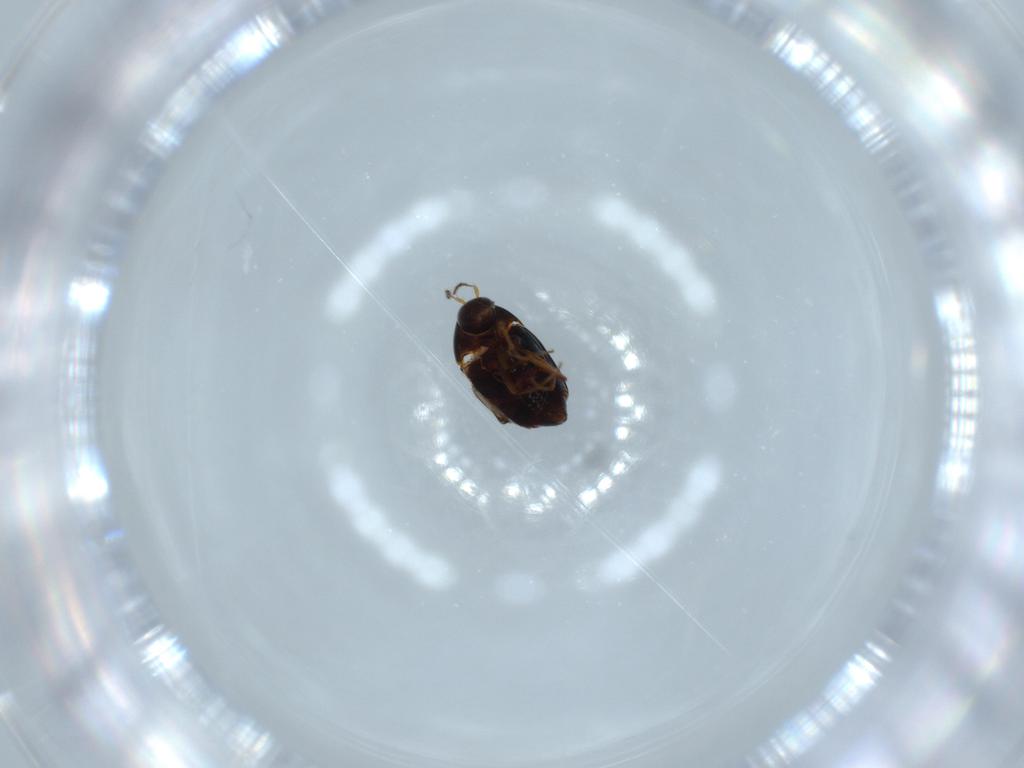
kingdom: Animalia
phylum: Arthropoda
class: Insecta
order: Coleoptera
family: Staphylinidae
